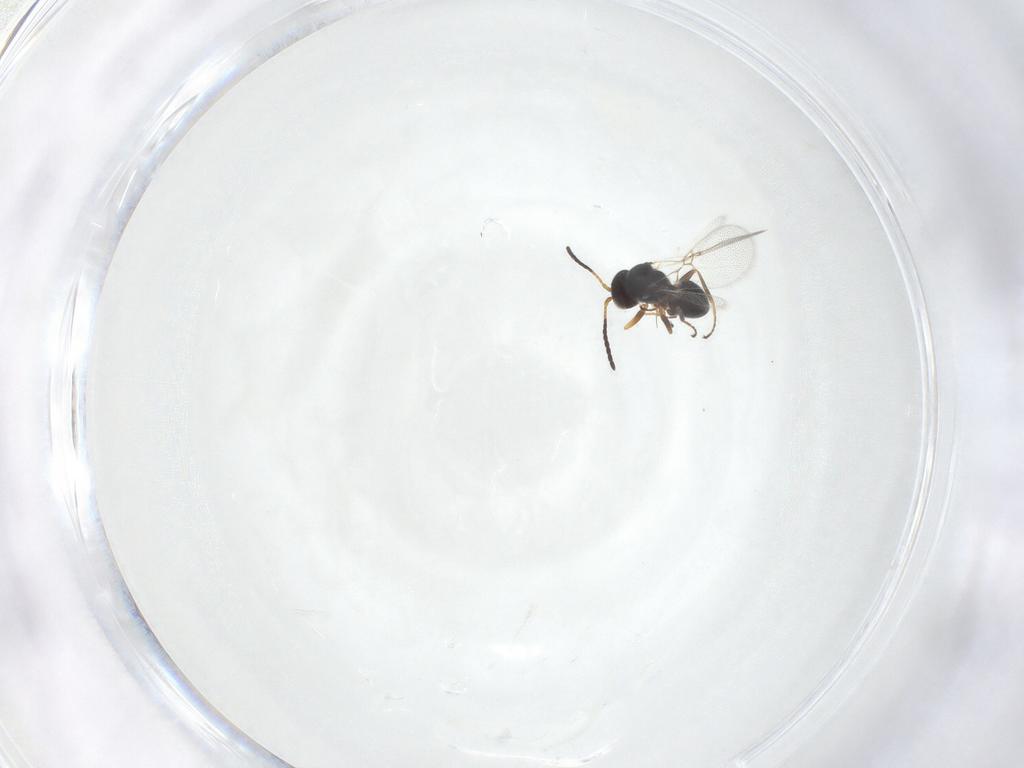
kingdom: Animalia
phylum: Arthropoda
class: Insecta
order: Hymenoptera
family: Figitidae
